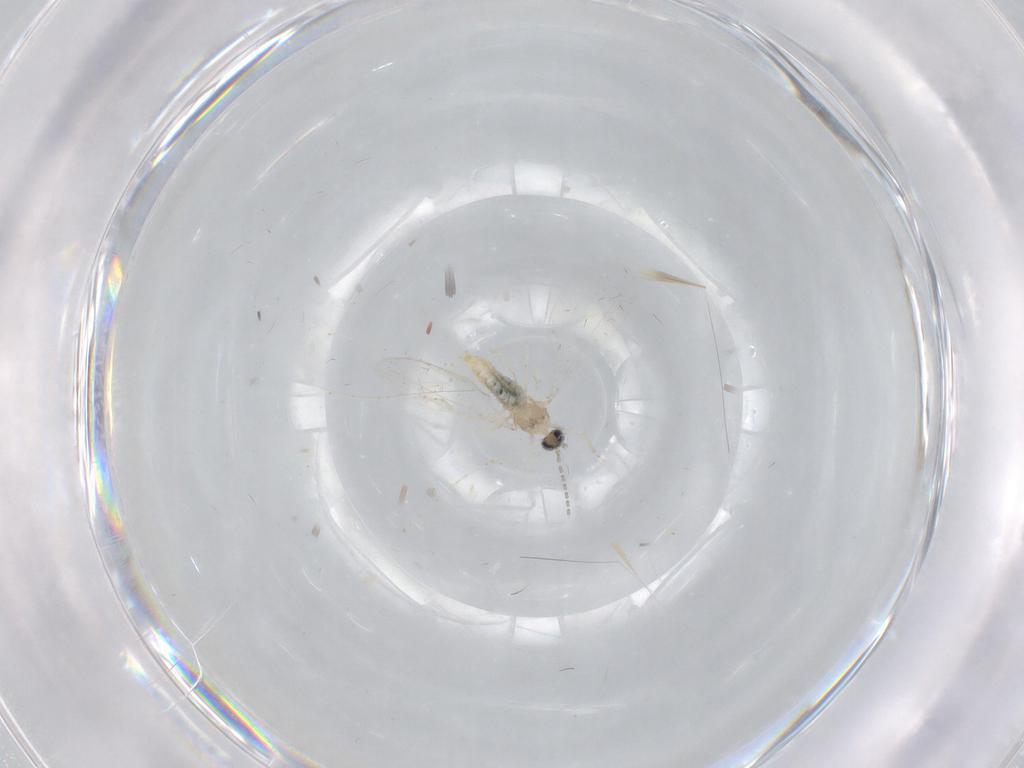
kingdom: Animalia
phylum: Arthropoda
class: Insecta
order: Diptera
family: Cecidomyiidae
